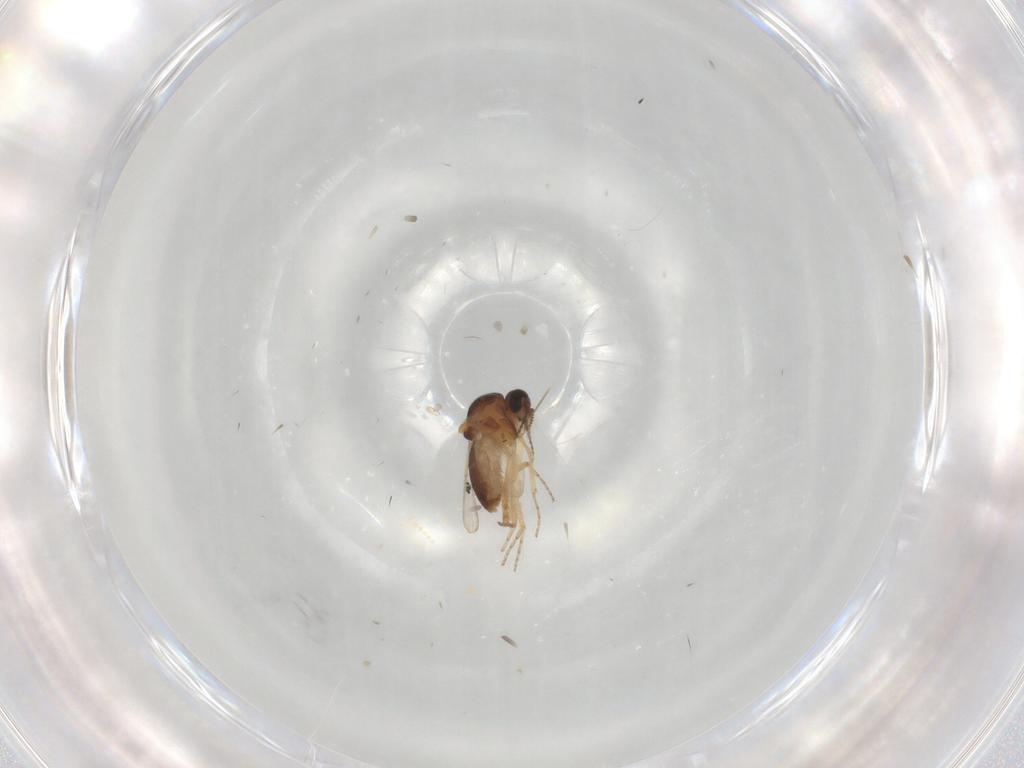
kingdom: Animalia
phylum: Arthropoda
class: Insecta
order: Diptera
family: Ceratopogonidae
